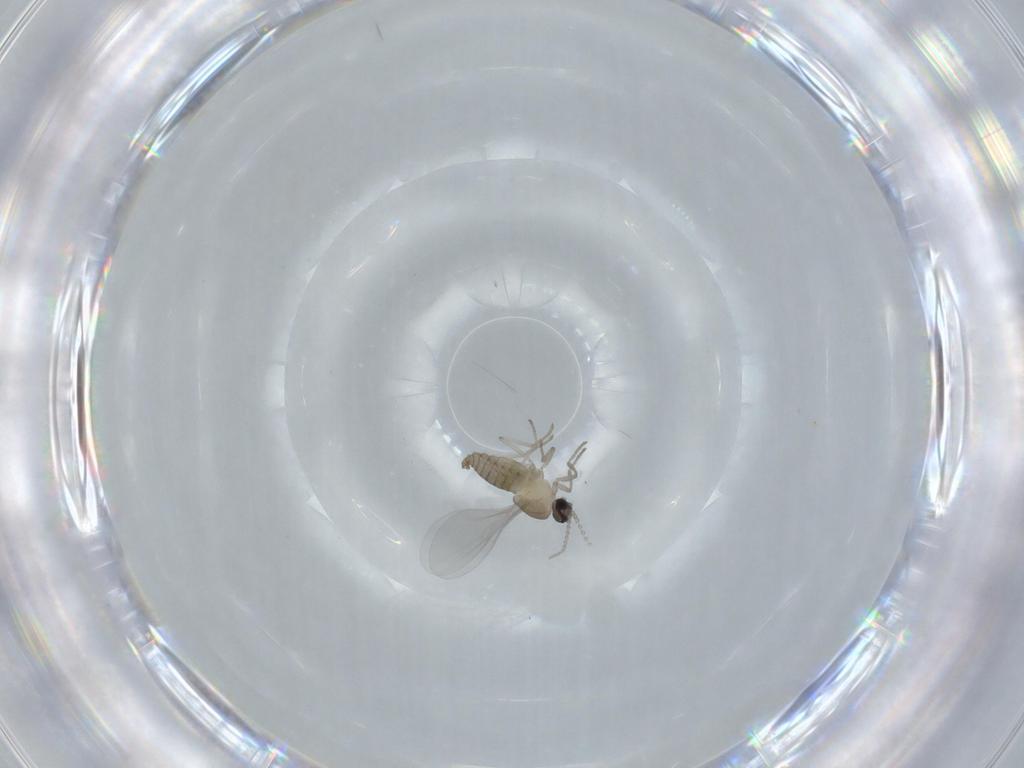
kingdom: Animalia
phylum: Arthropoda
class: Insecta
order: Diptera
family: Cecidomyiidae
